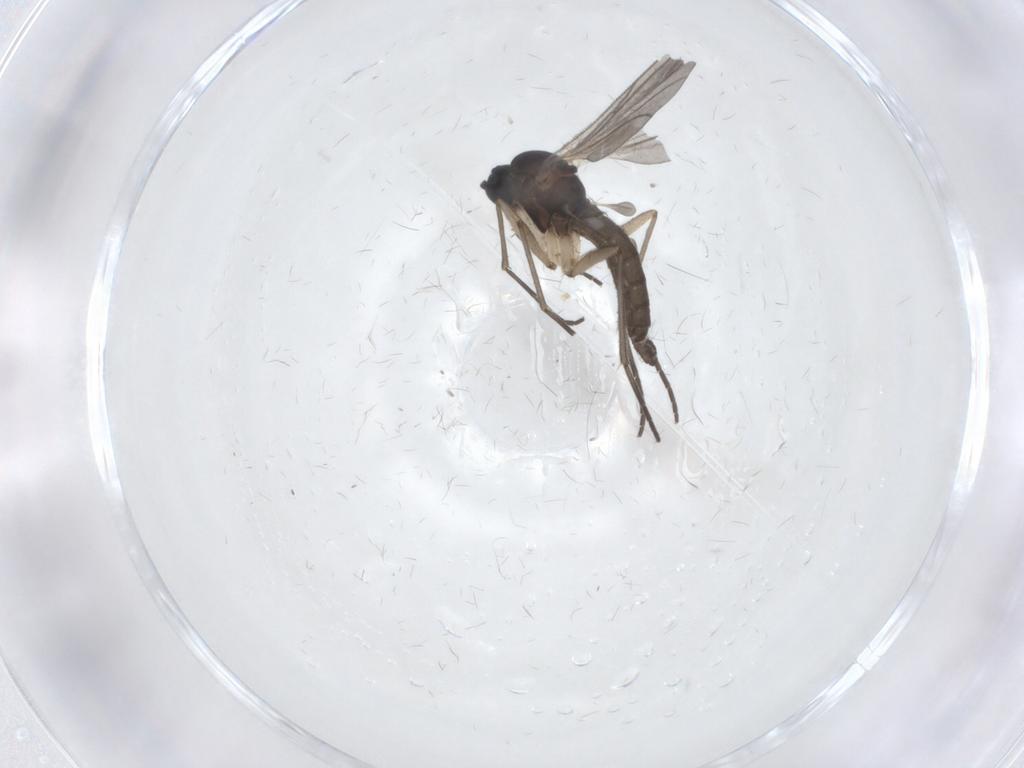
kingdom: Animalia
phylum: Arthropoda
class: Insecta
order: Diptera
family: Sciaridae
